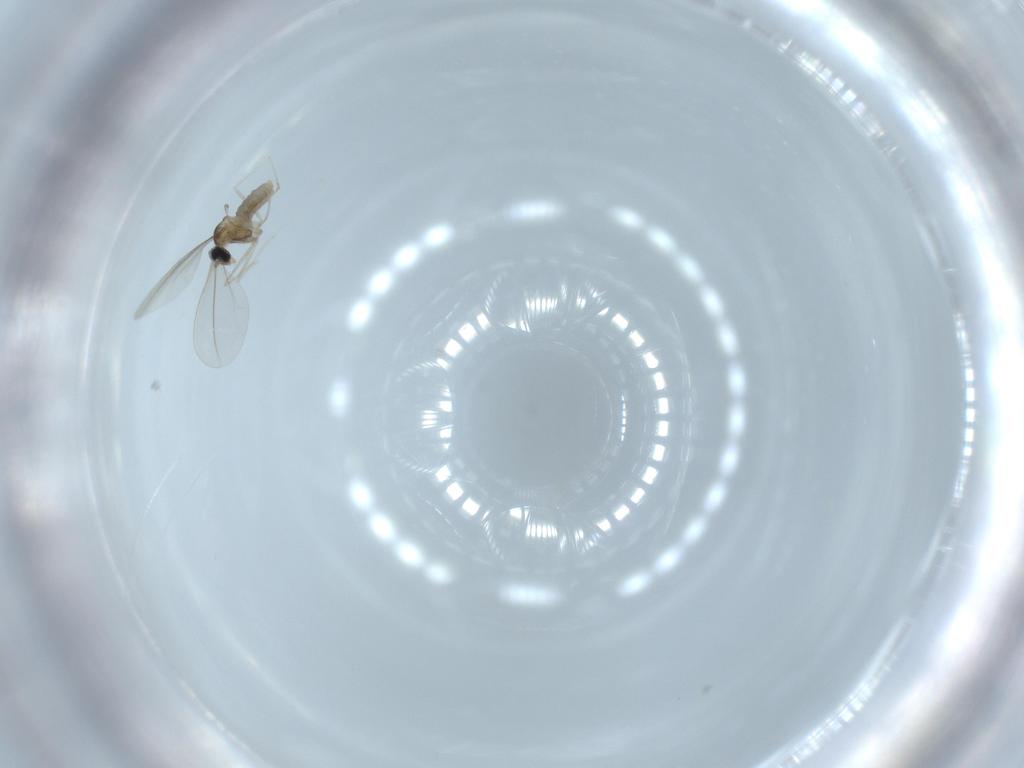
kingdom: Animalia
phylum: Arthropoda
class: Insecta
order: Diptera
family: Cecidomyiidae
